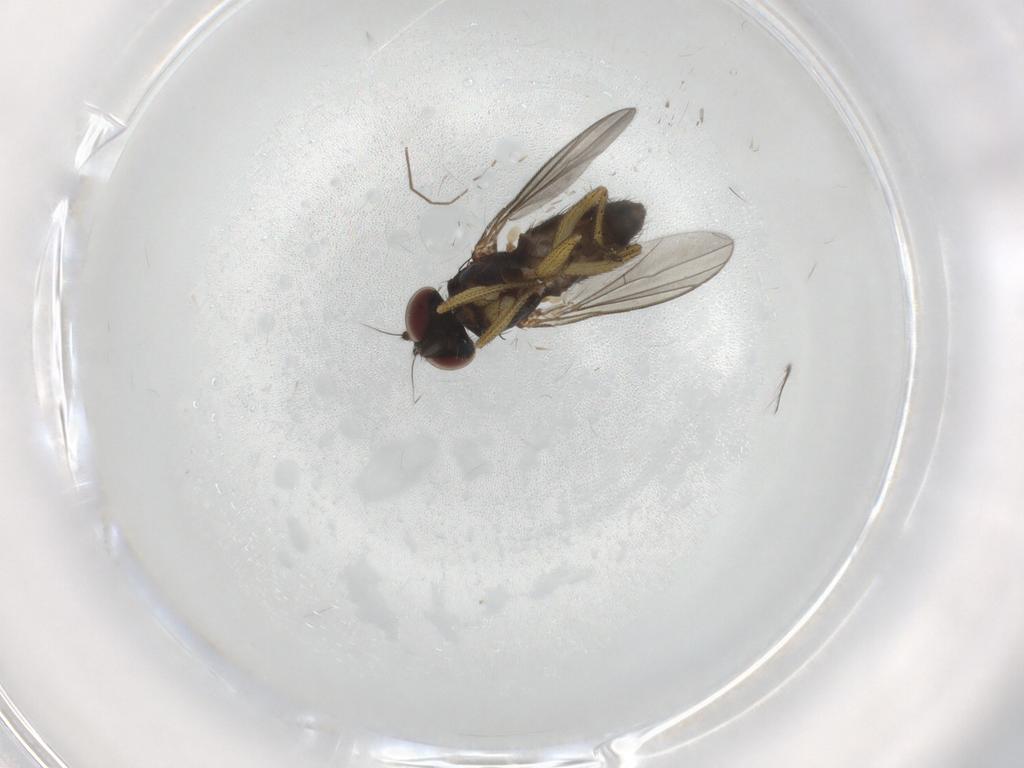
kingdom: Animalia
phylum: Arthropoda
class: Insecta
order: Diptera
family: Dolichopodidae
